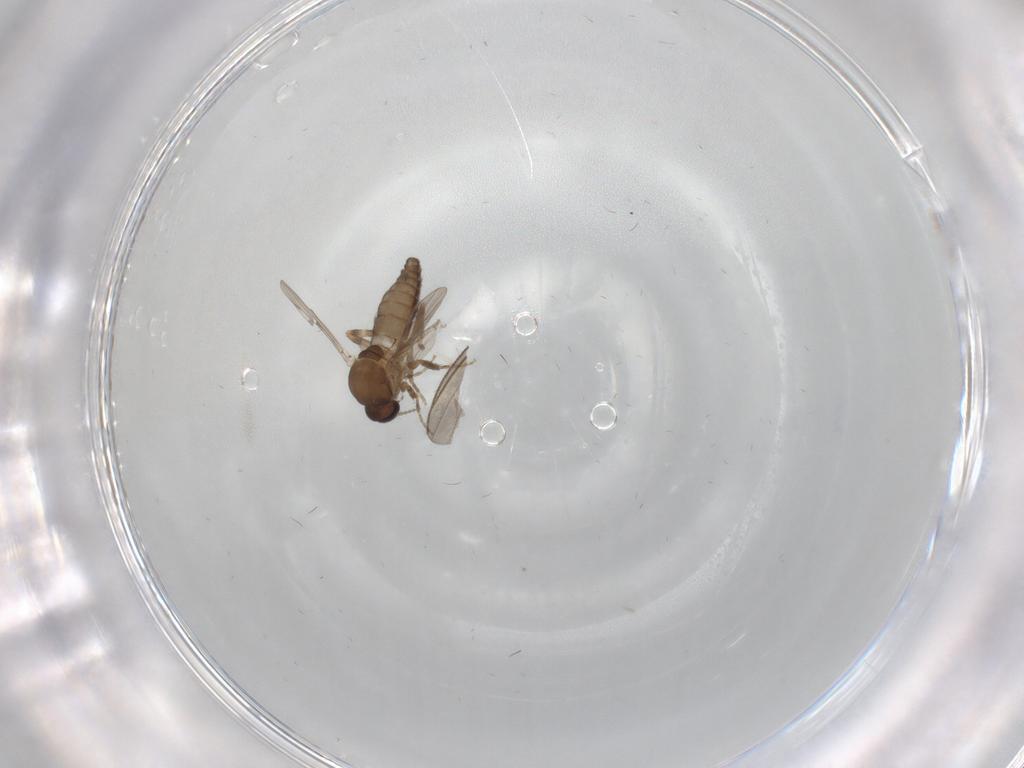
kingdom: Animalia
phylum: Arthropoda
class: Insecta
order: Diptera
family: Ceratopogonidae
